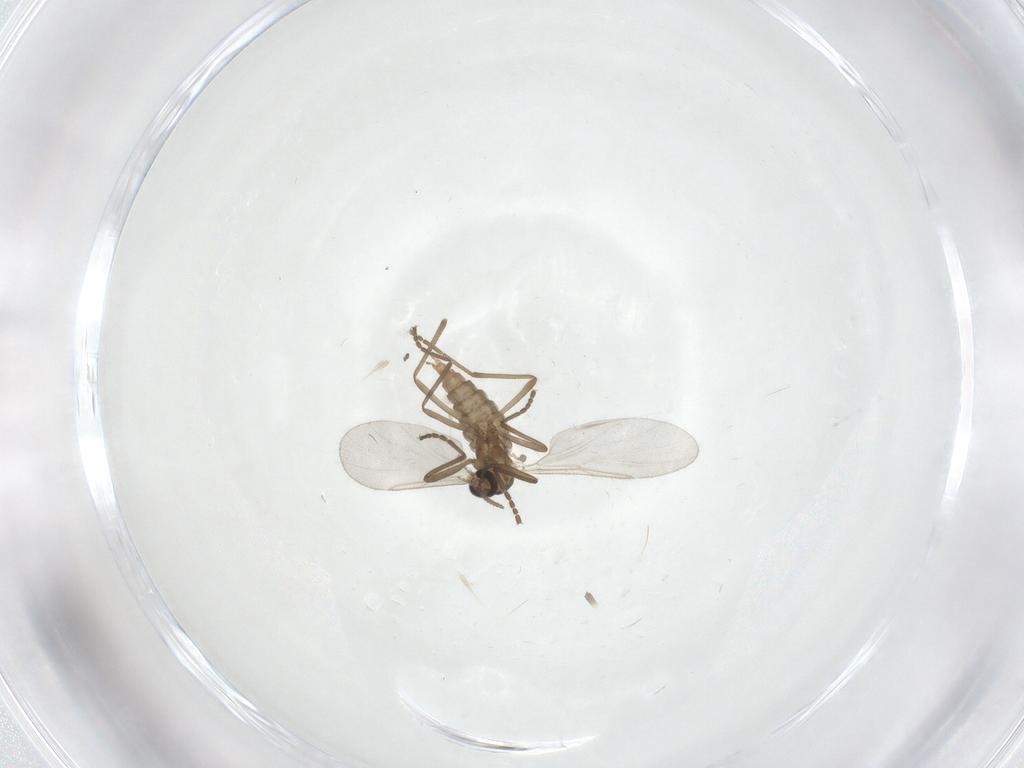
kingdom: Animalia
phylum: Arthropoda
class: Insecta
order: Diptera
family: Cecidomyiidae
